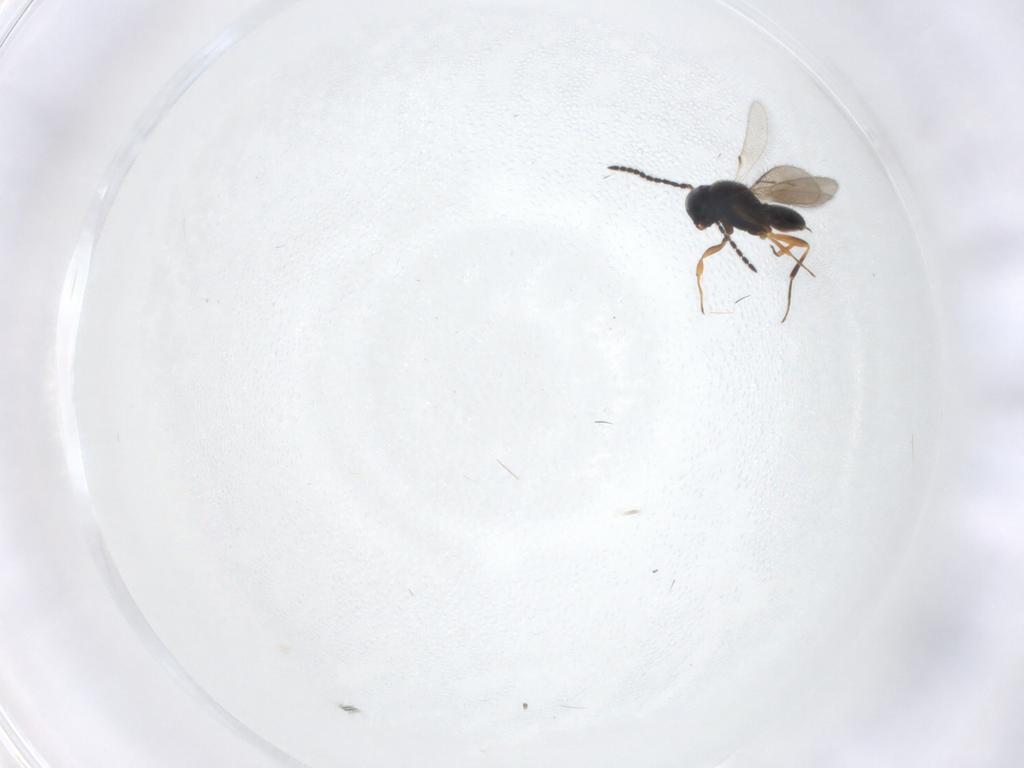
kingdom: Animalia
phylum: Arthropoda
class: Insecta
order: Hymenoptera
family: Scelionidae
